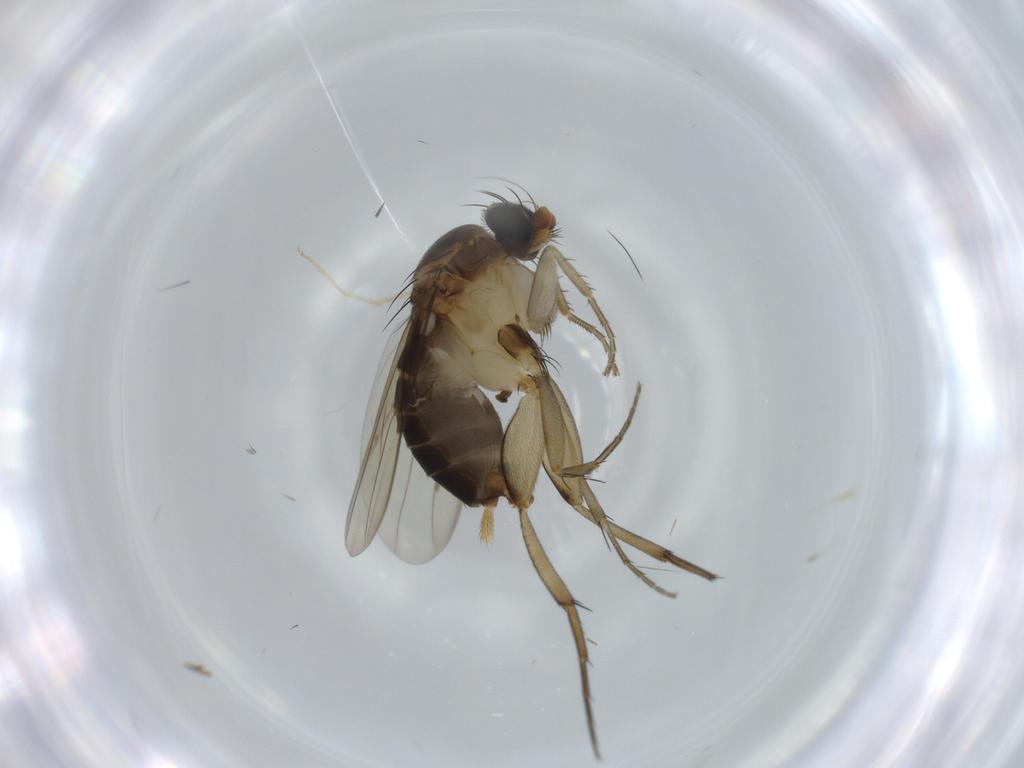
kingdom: Animalia
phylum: Arthropoda
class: Insecta
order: Diptera
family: Phoridae
